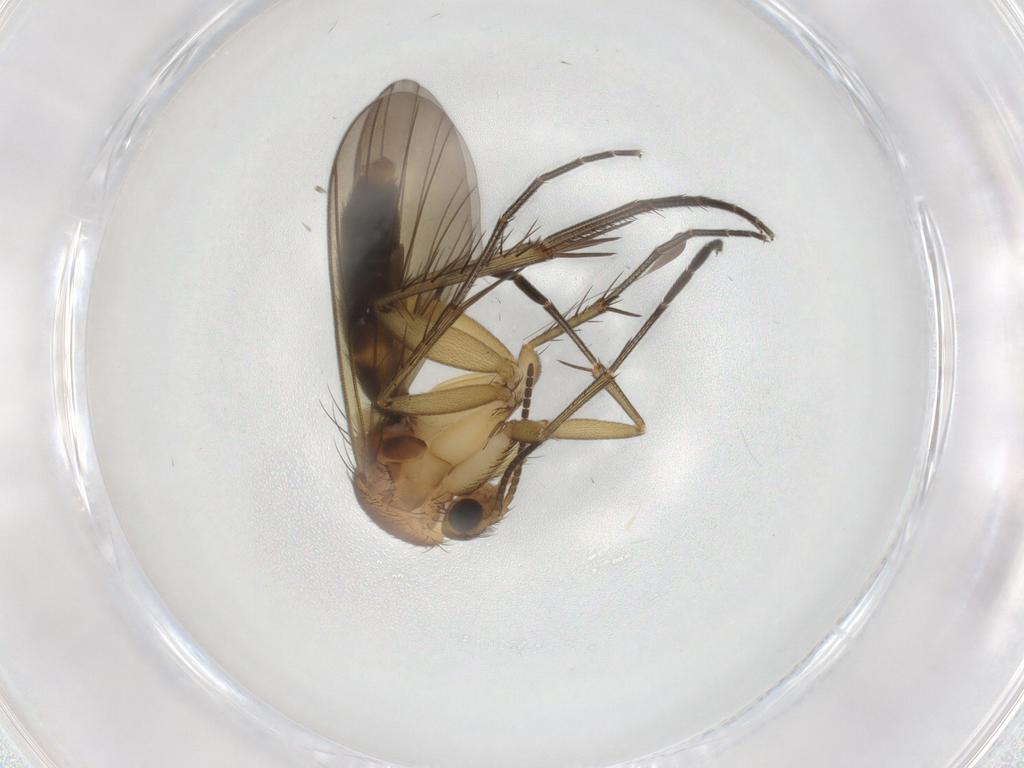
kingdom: Animalia
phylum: Arthropoda
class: Insecta
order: Diptera
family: Mycetophilidae
